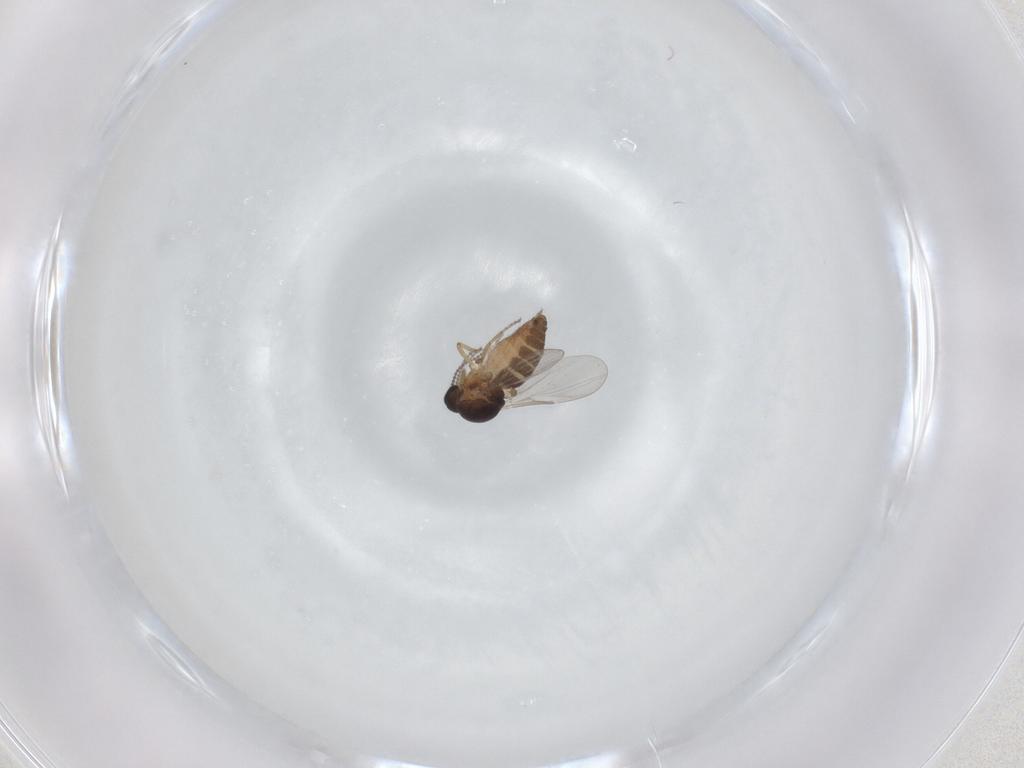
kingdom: Animalia
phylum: Arthropoda
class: Insecta
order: Diptera
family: Ceratopogonidae
